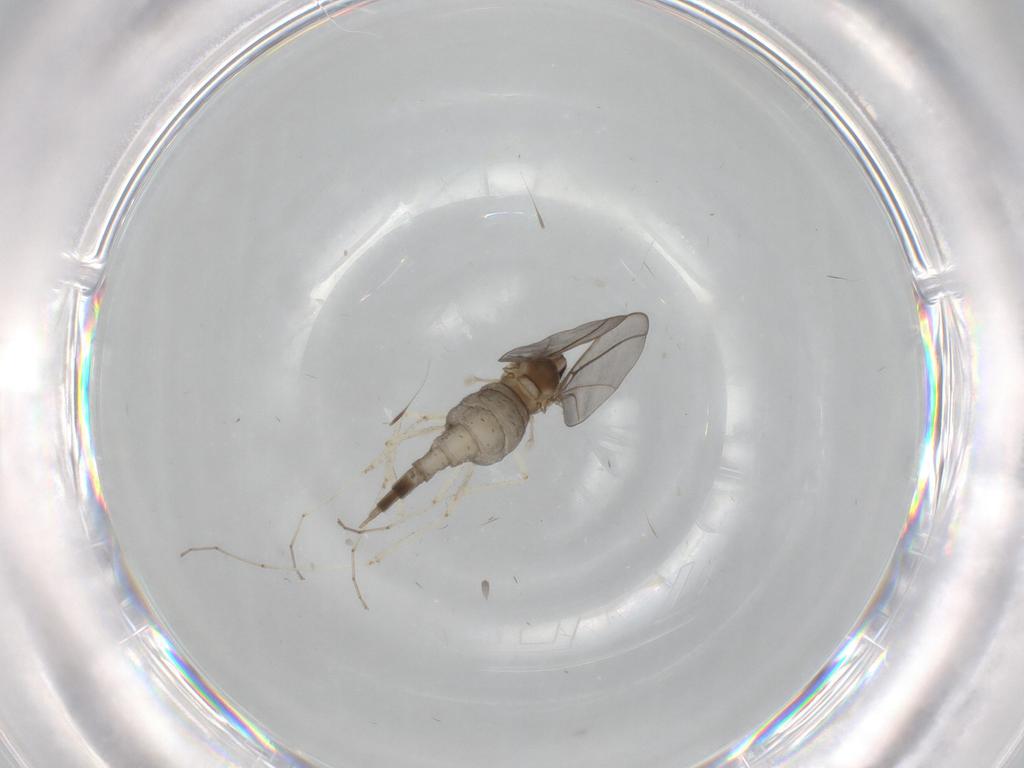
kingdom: Animalia
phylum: Arthropoda
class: Insecta
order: Diptera
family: Cecidomyiidae
